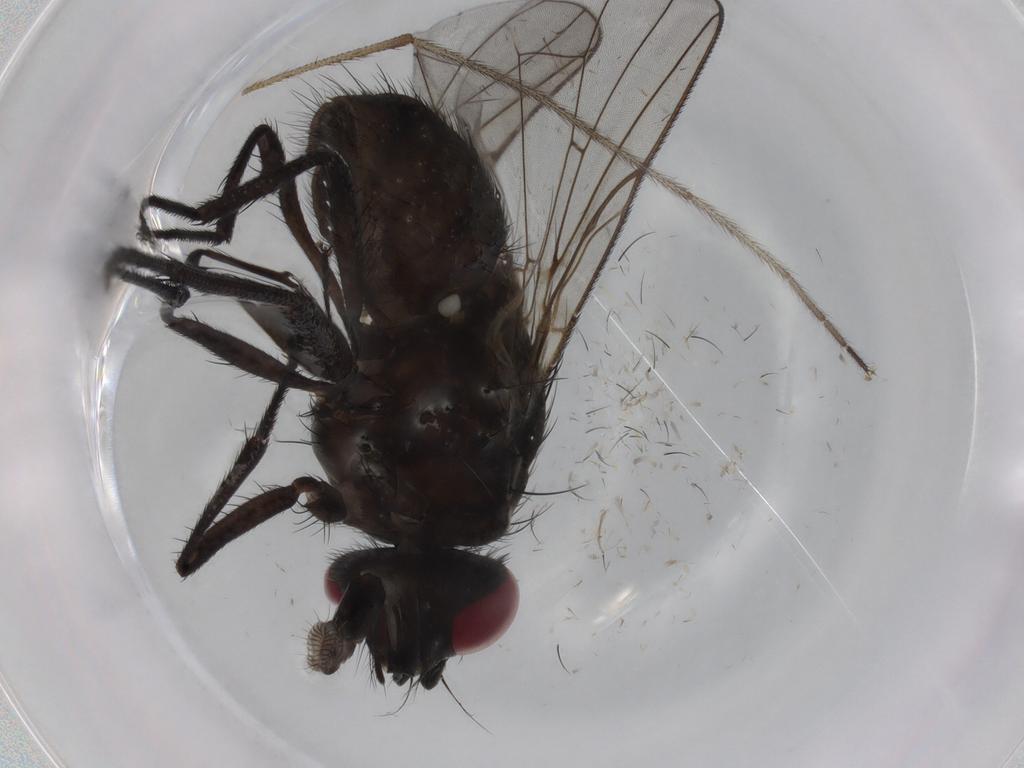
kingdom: Animalia
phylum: Arthropoda
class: Insecta
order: Diptera
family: Muscidae
